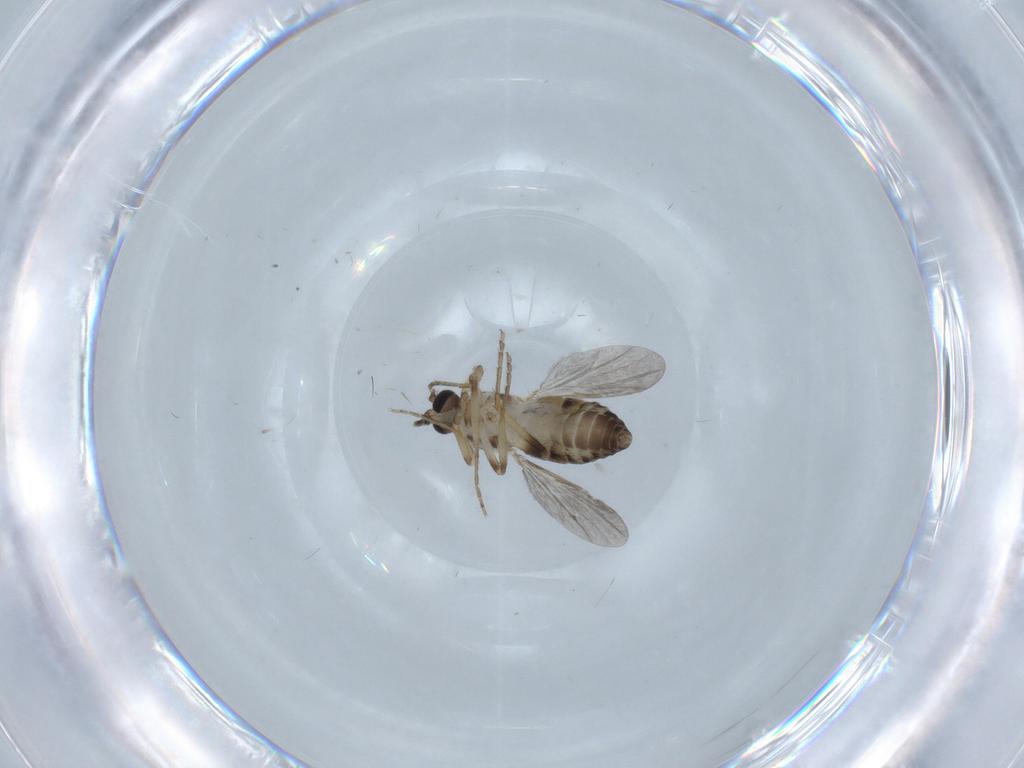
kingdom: Animalia
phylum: Arthropoda
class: Insecta
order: Diptera
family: Ceratopogonidae
